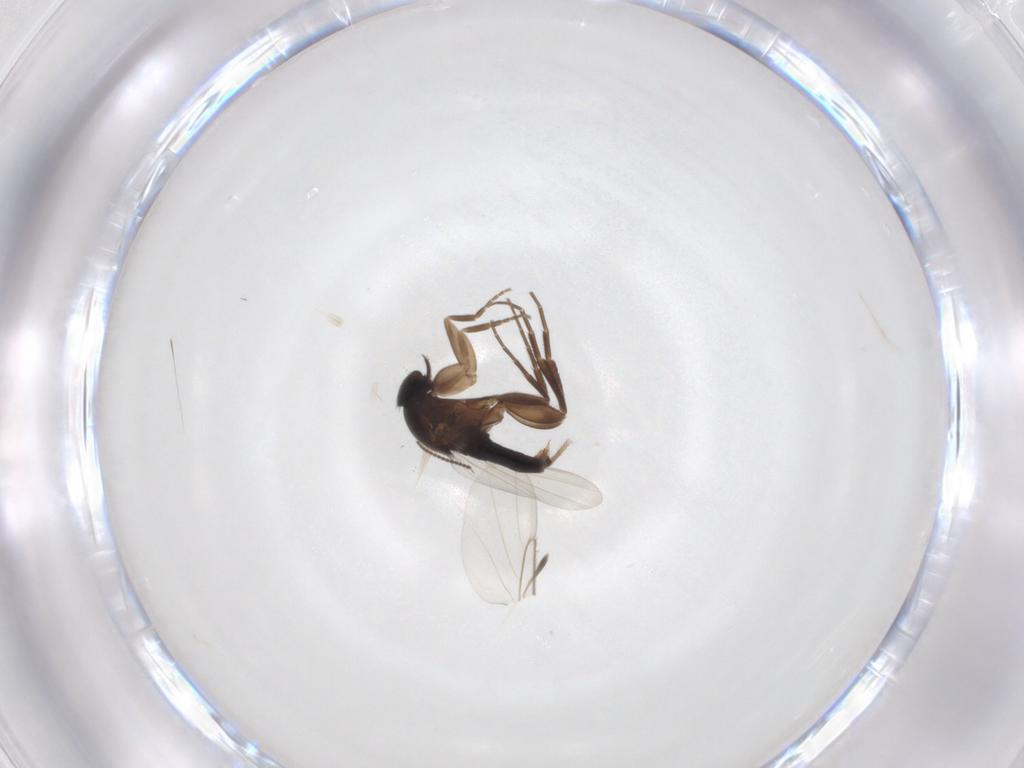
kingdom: Animalia
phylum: Arthropoda
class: Insecta
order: Diptera
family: Phoridae
